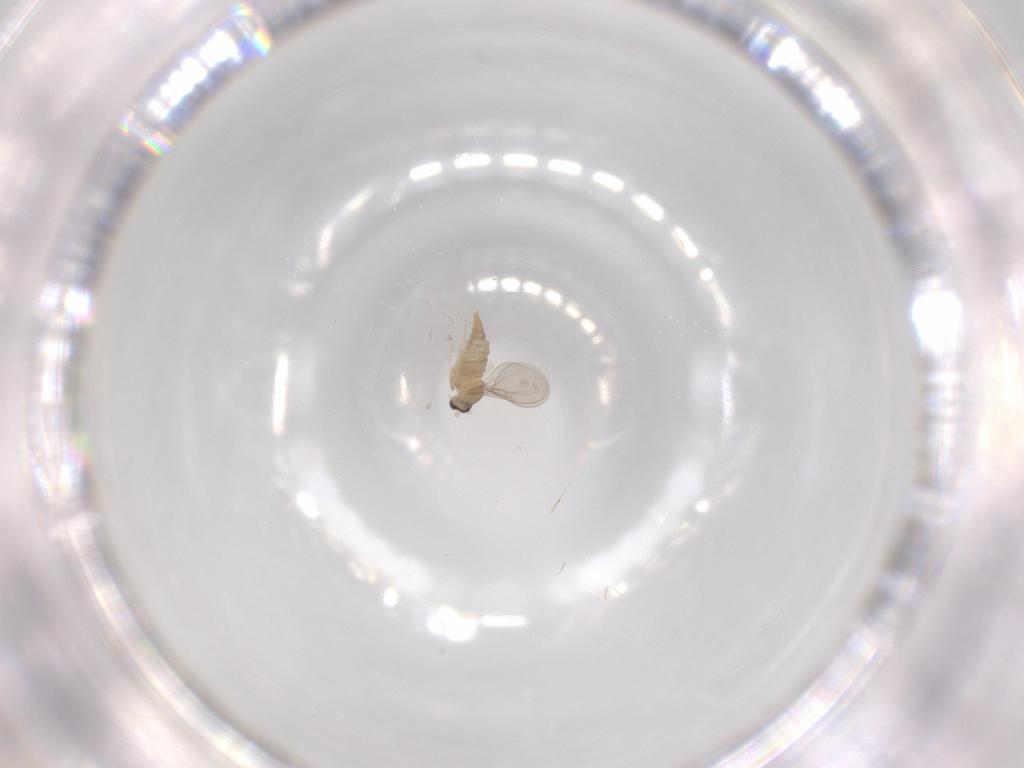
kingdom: Animalia
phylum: Arthropoda
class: Insecta
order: Diptera
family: Cecidomyiidae
